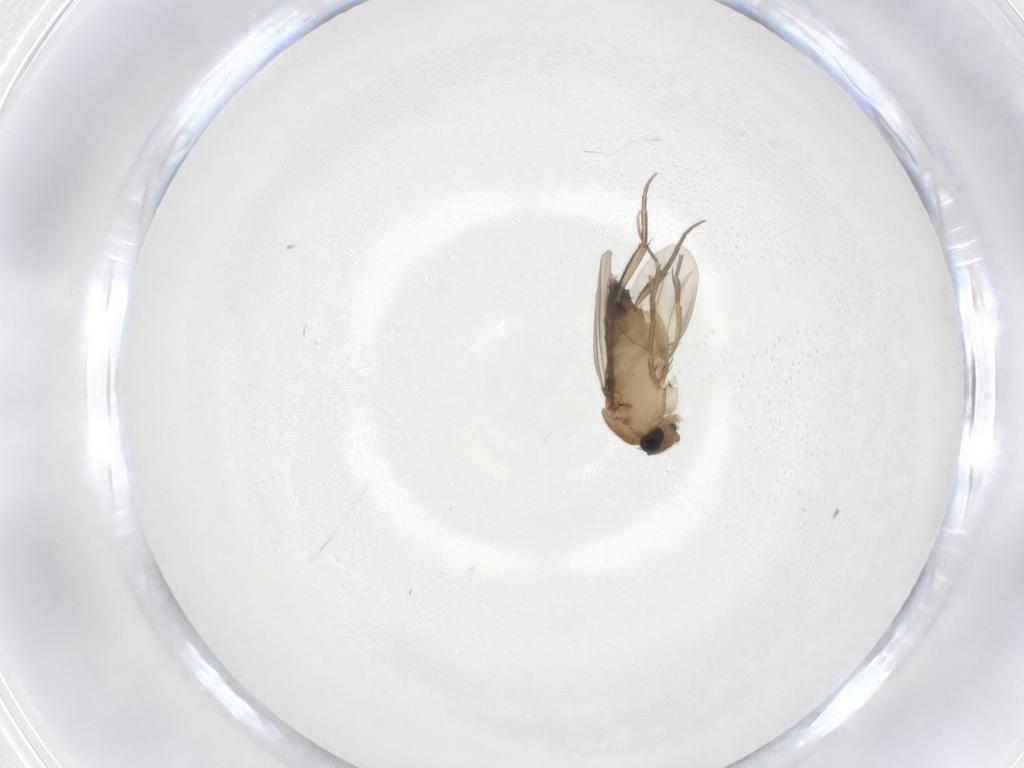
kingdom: Animalia
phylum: Arthropoda
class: Insecta
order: Diptera
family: Phoridae
